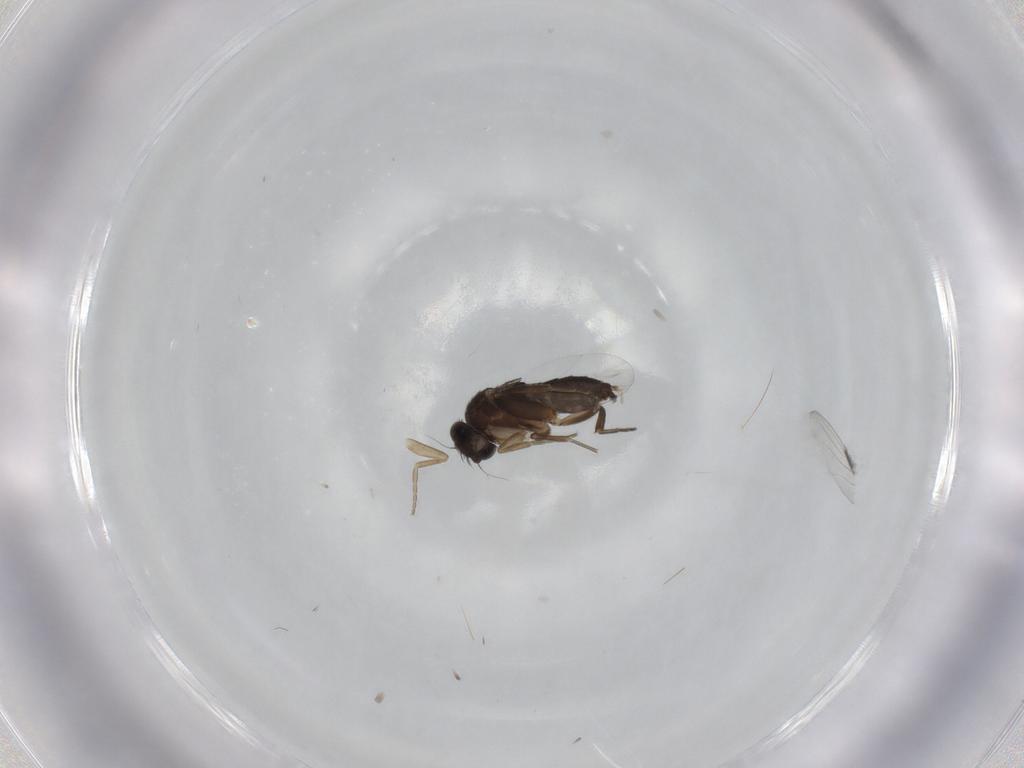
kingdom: Animalia
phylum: Arthropoda
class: Insecta
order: Diptera
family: Phoridae
